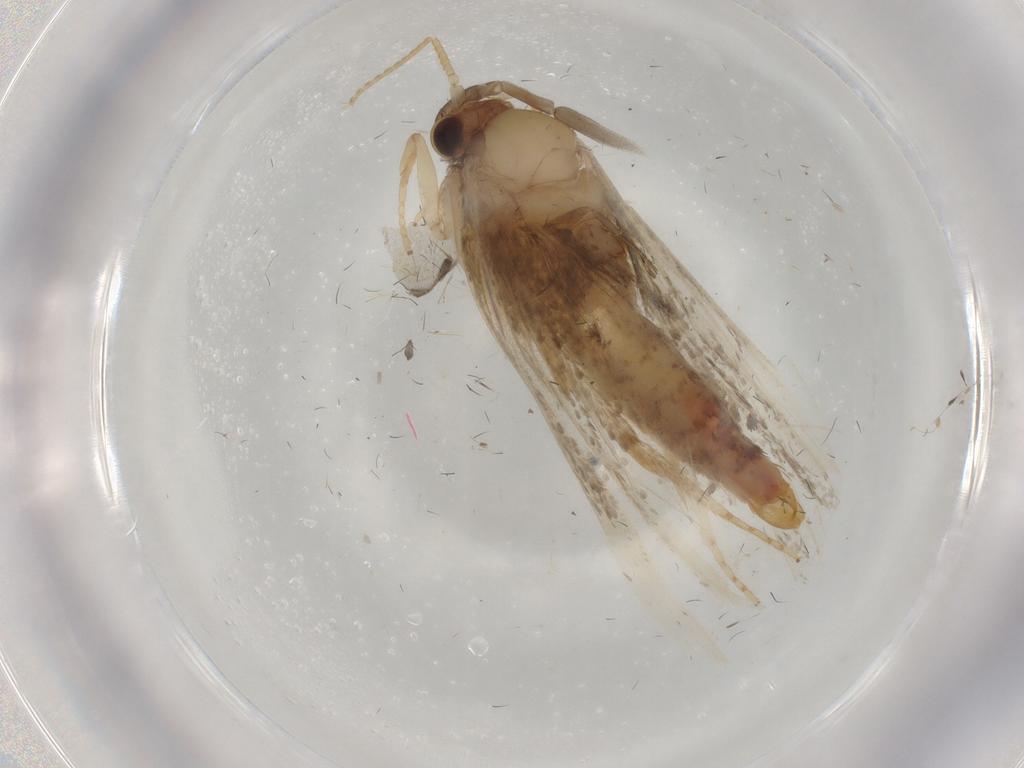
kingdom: Animalia
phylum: Arthropoda
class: Insecta
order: Lepidoptera
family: Tineidae
